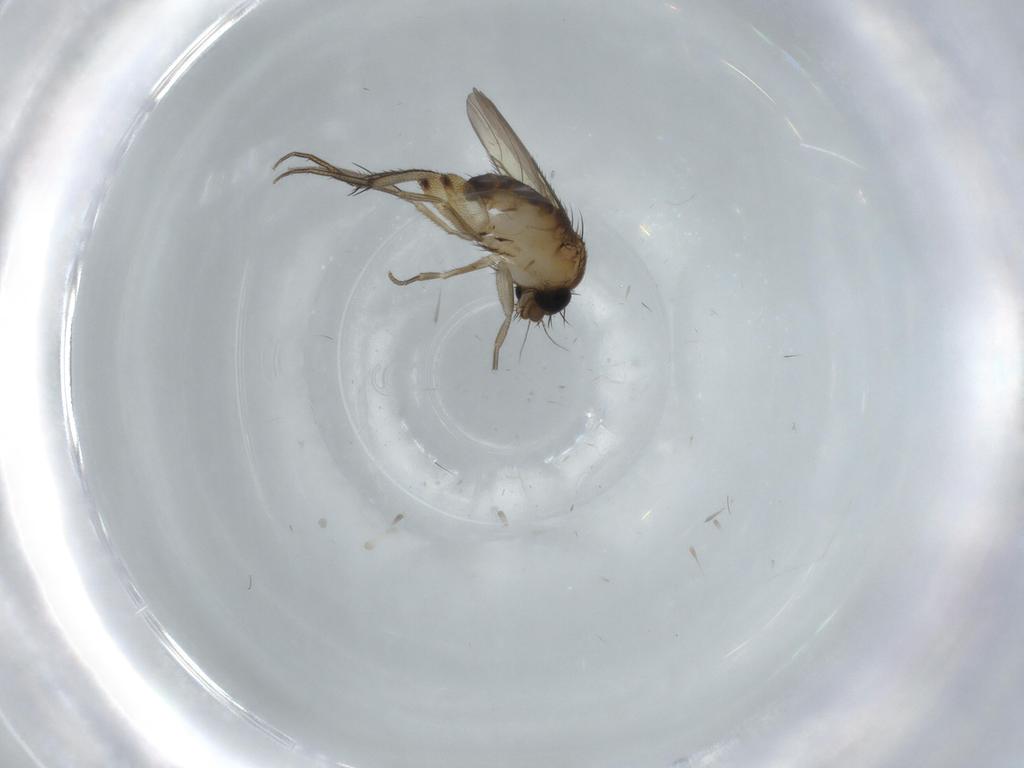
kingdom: Animalia
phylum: Arthropoda
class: Insecta
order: Diptera
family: Phoridae
